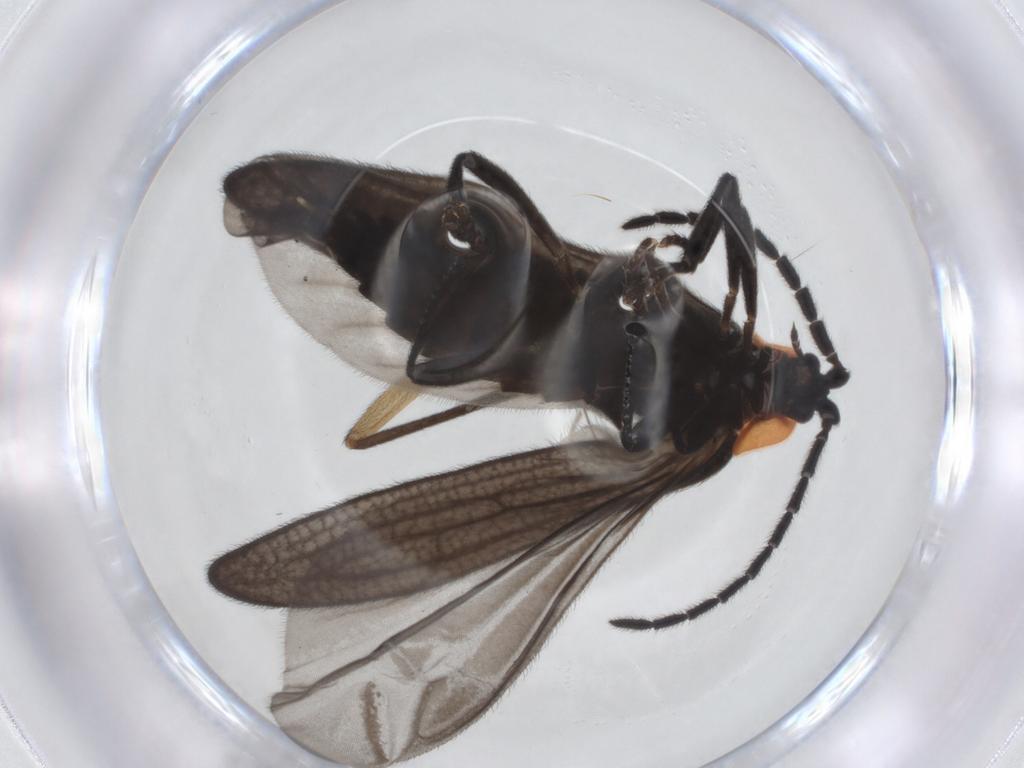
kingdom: Animalia
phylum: Arthropoda
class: Insecta
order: Coleoptera
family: Lycidae
